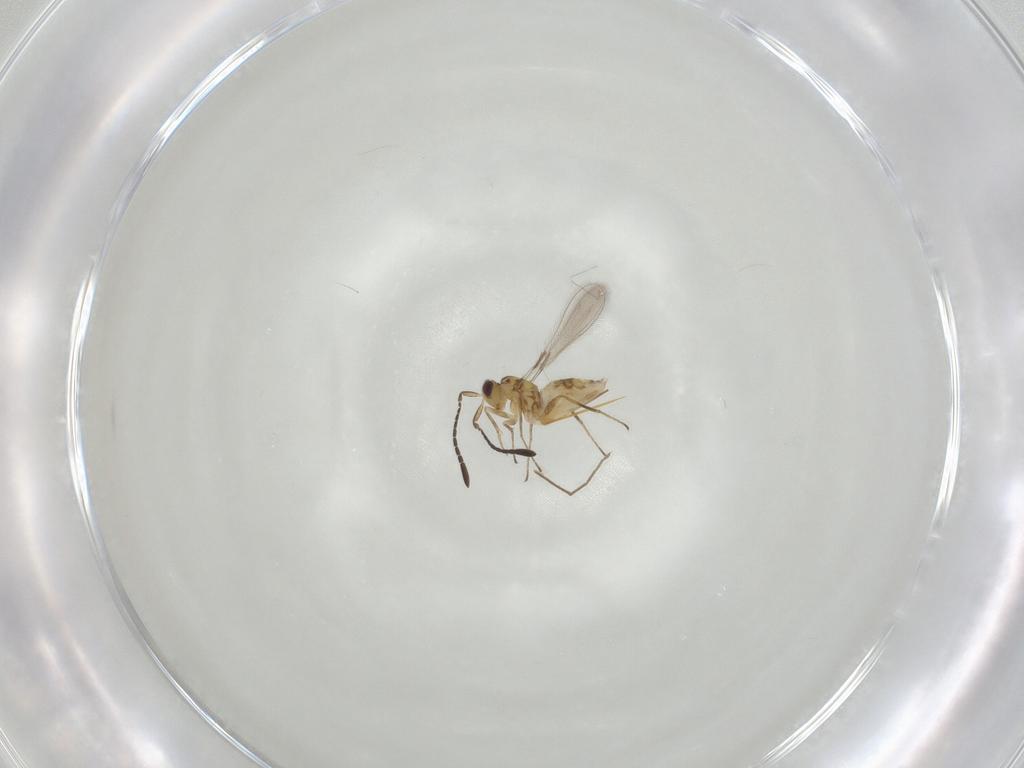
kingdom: Animalia
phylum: Arthropoda
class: Insecta
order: Hymenoptera
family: Mymaridae
